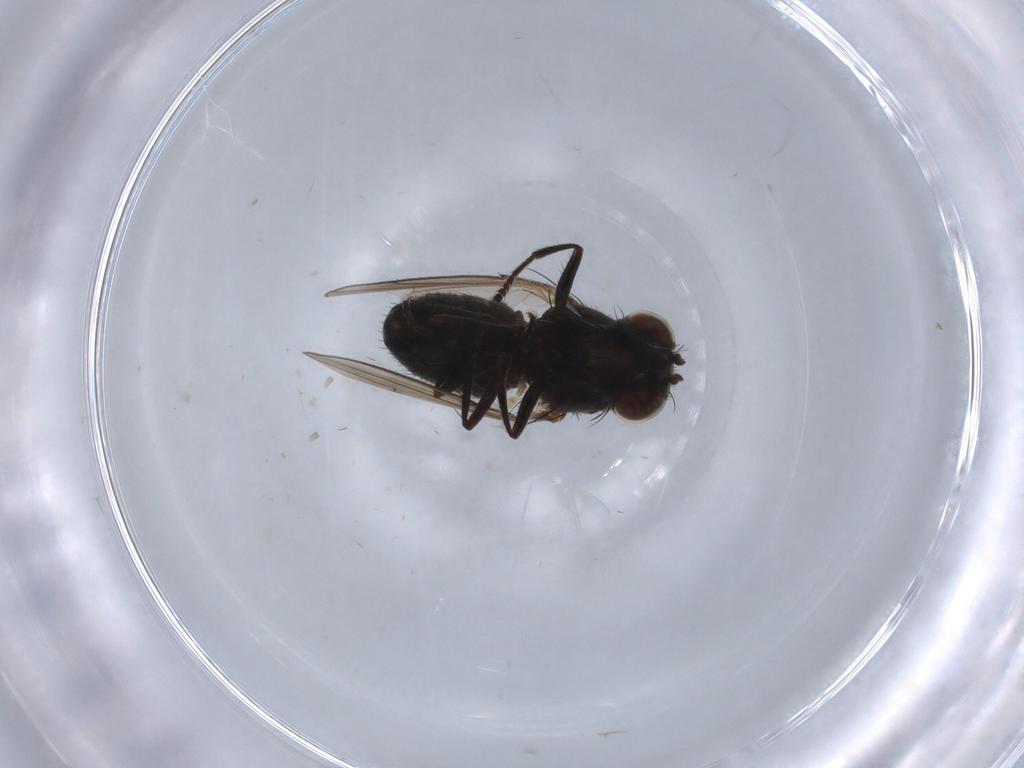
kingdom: Animalia
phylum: Arthropoda
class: Insecta
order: Diptera
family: Ephydridae
